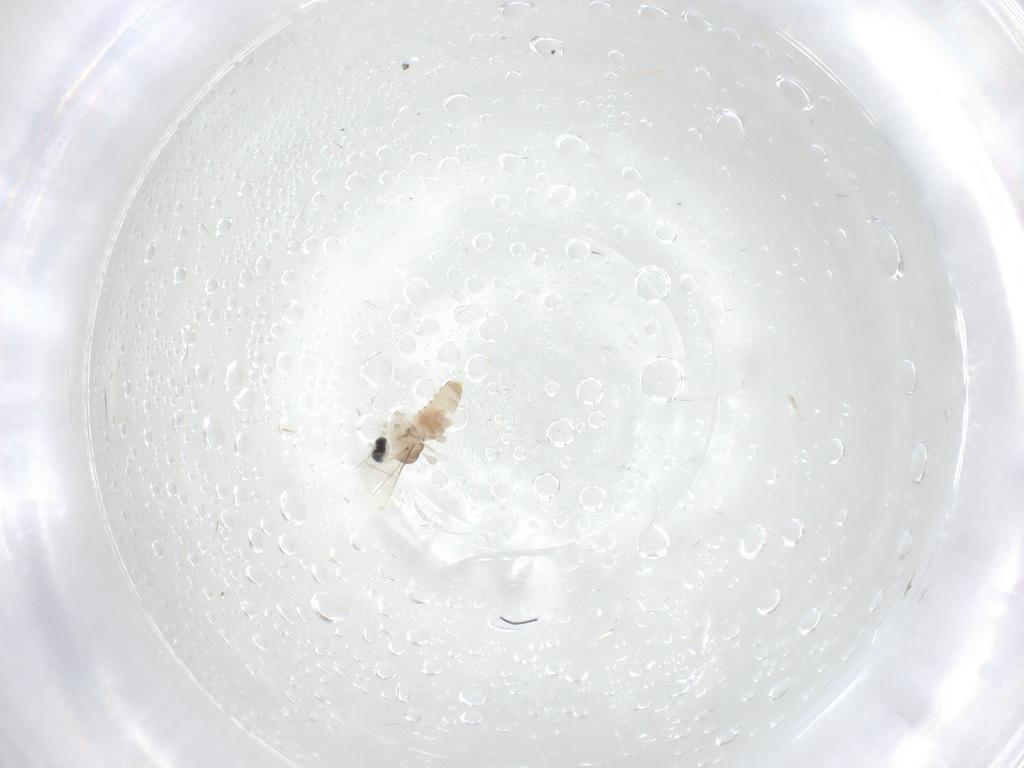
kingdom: Animalia
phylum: Arthropoda
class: Insecta
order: Diptera
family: Cecidomyiidae
